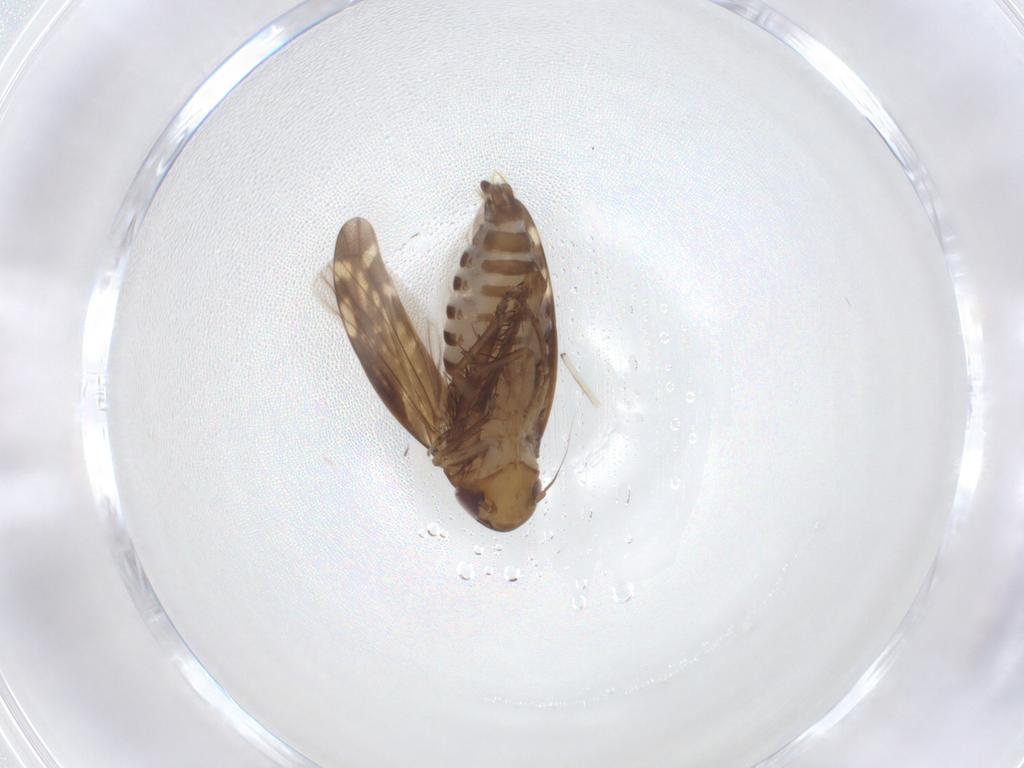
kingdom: Animalia
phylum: Arthropoda
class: Insecta
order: Hemiptera
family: Cicadellidae
